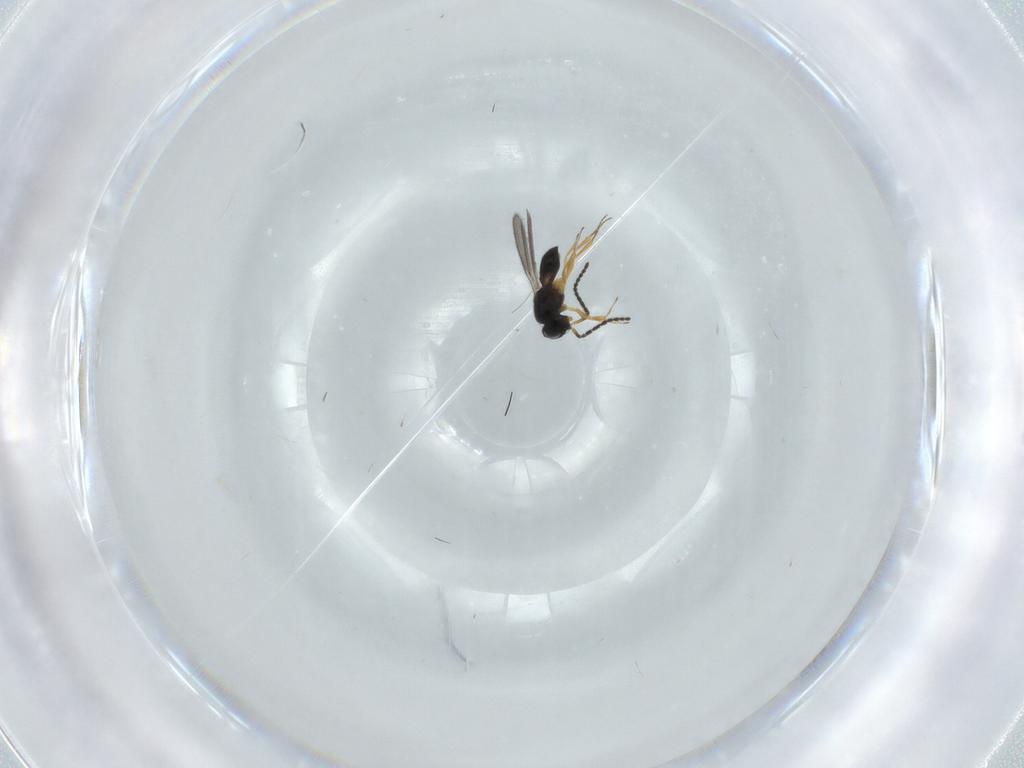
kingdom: Animalia
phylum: Arthropoda
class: Insecta
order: Hymenoptera
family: Scelionidae
